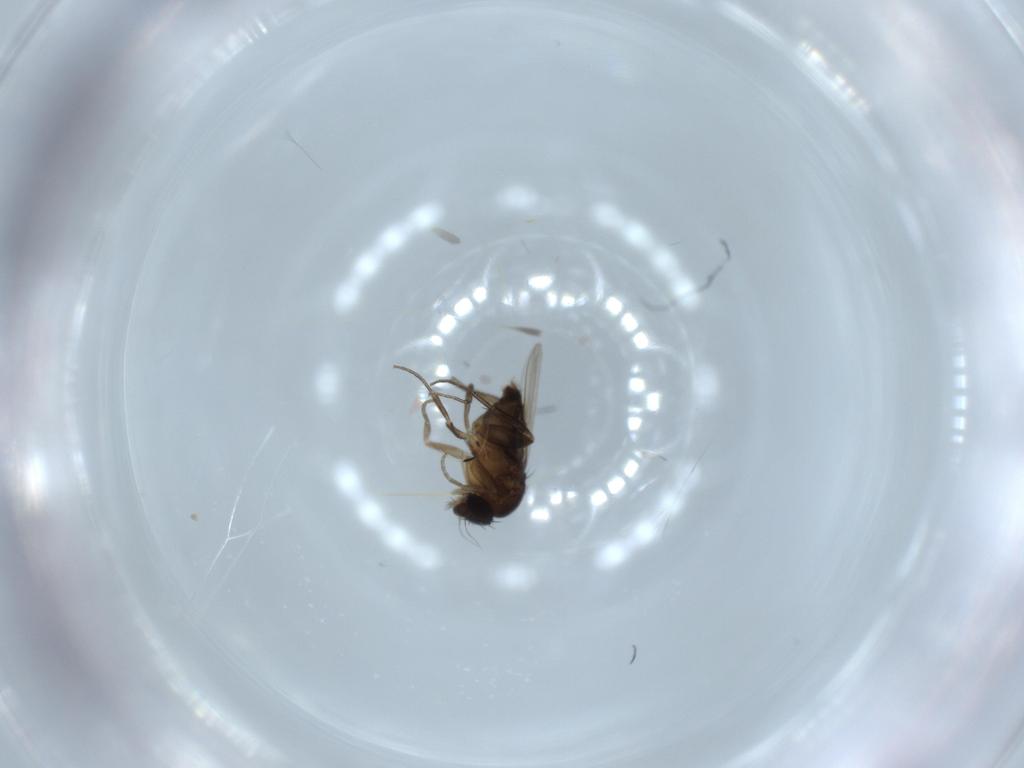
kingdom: Animalia
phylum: Arthropoda
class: Insecta
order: Diptera
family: Phoridae
